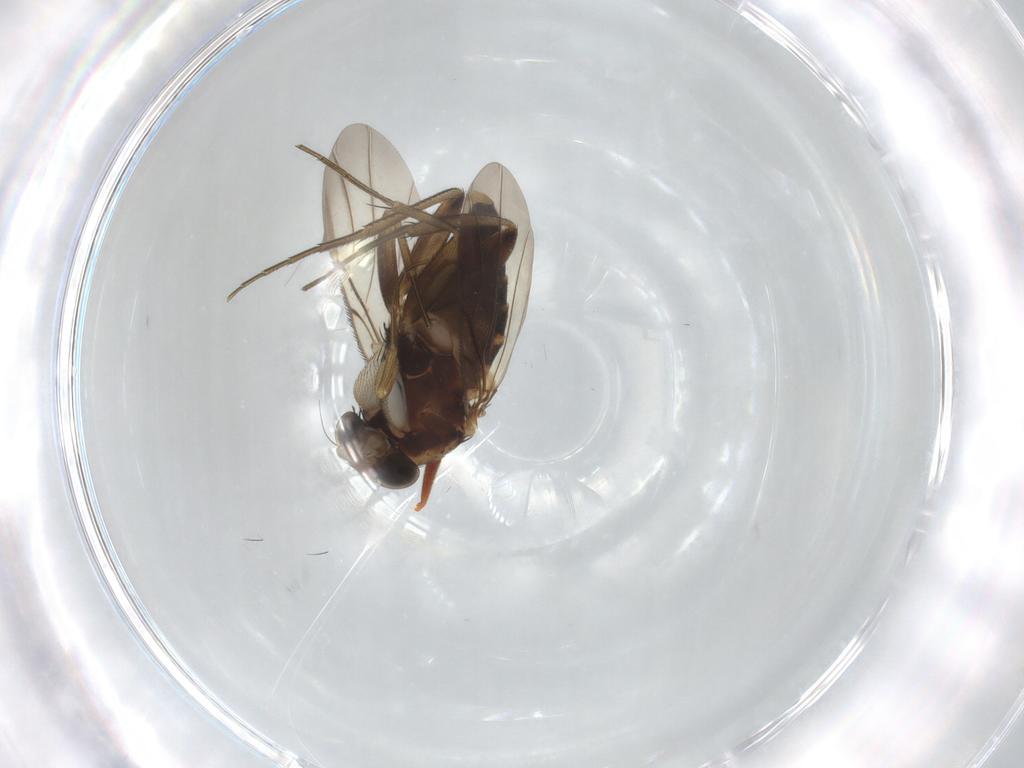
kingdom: Animalia
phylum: Arthropoda
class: Insecta
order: Diptera
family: Phoridae
